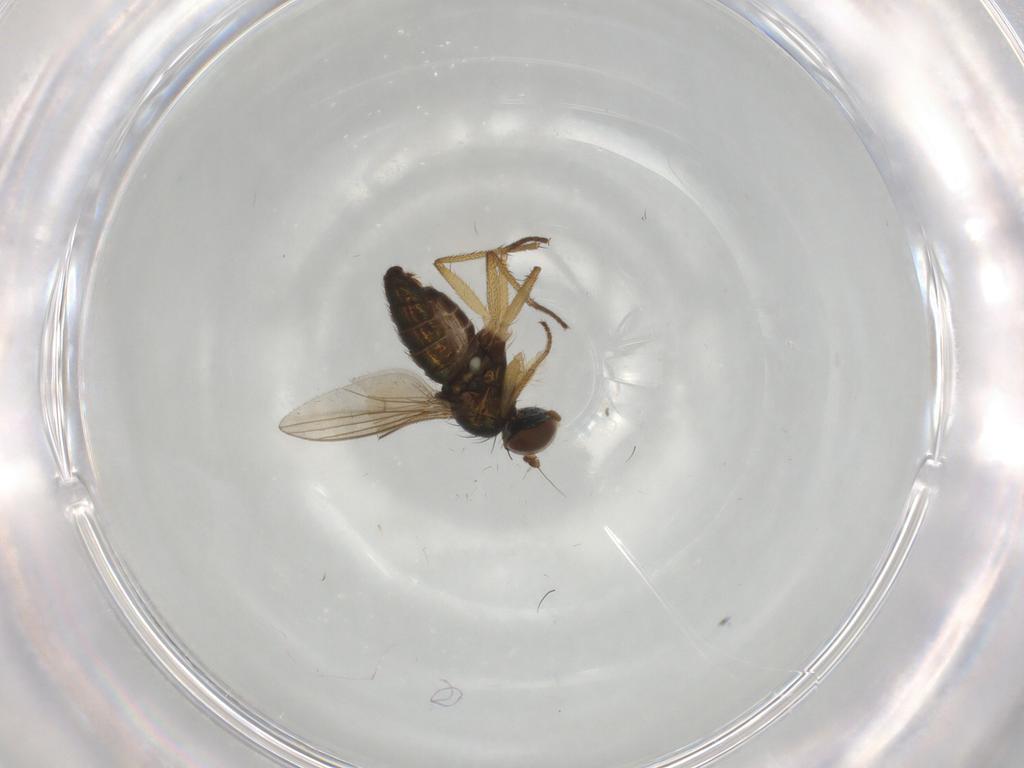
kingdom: Animalia
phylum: Arthropoda
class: Insecta
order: Diptera
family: Dolichopodidae
